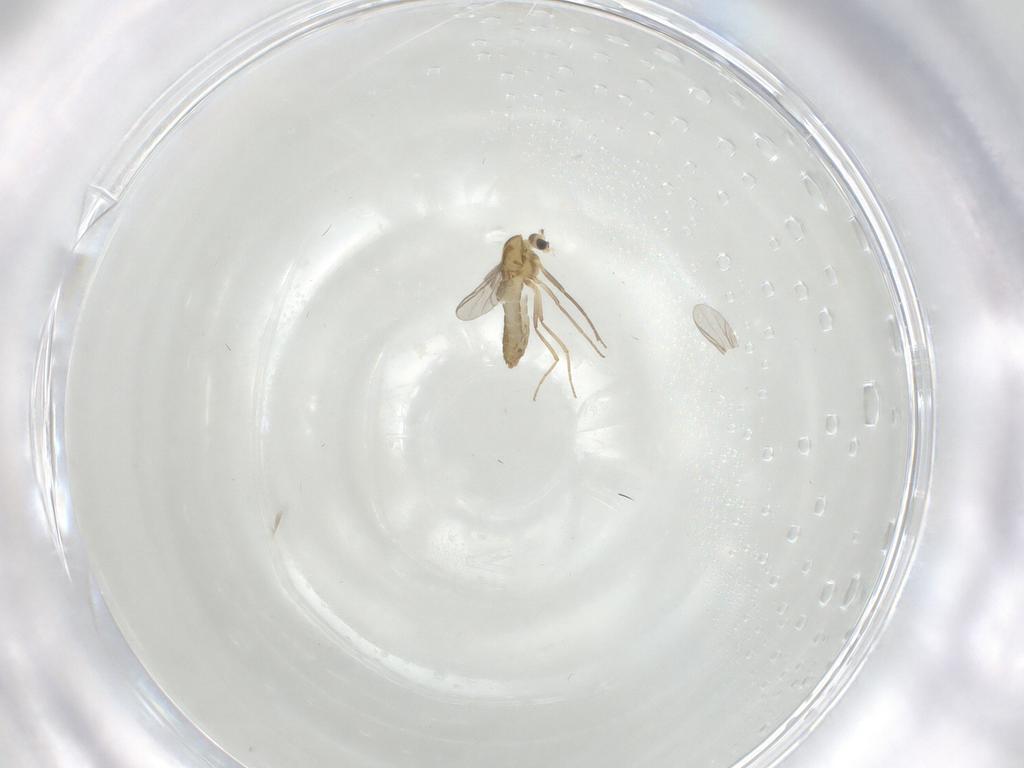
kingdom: Animalia
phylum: Arthropoda
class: Insecta
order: Diptera
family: Chironomidae
